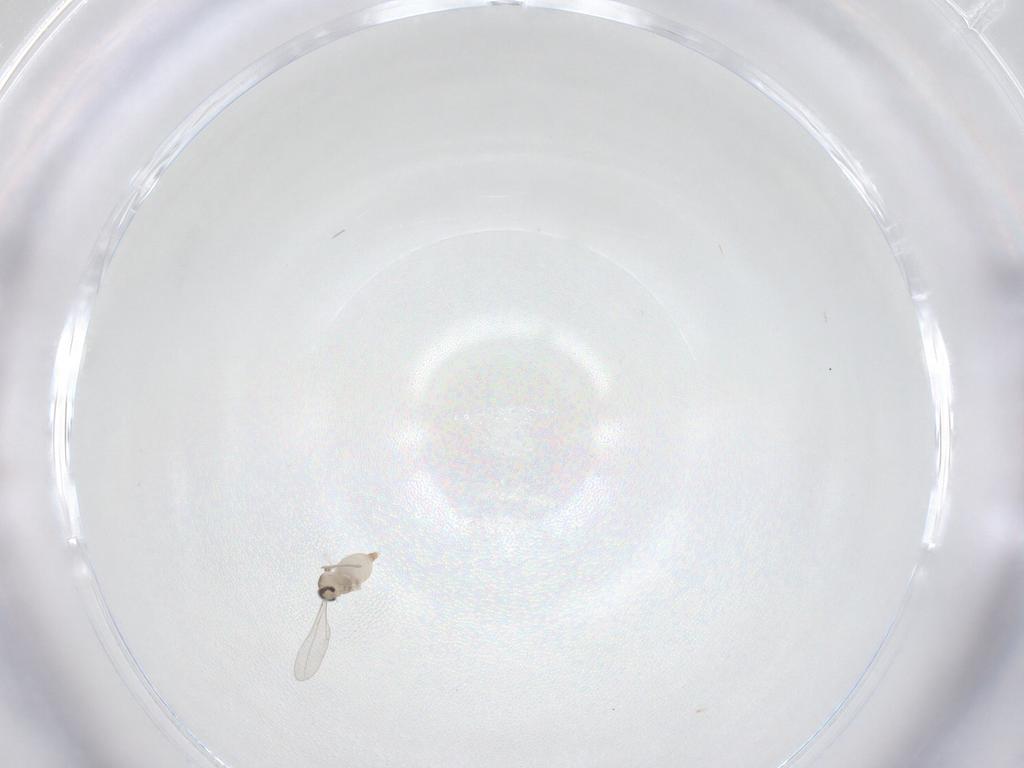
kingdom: Animalia
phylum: Arthropoda
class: Insecta
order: Diptera
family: Cecidomyiidae
